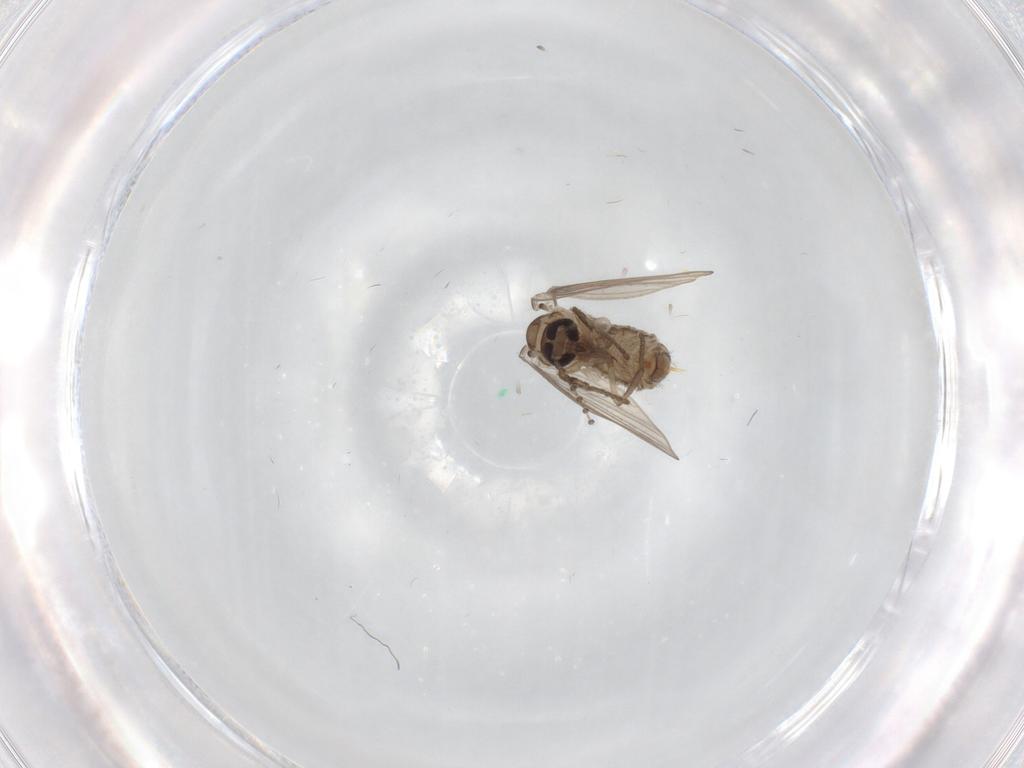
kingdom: Animalia
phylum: Arthropoda
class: Insecta
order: Diptera
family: Psychodidae
